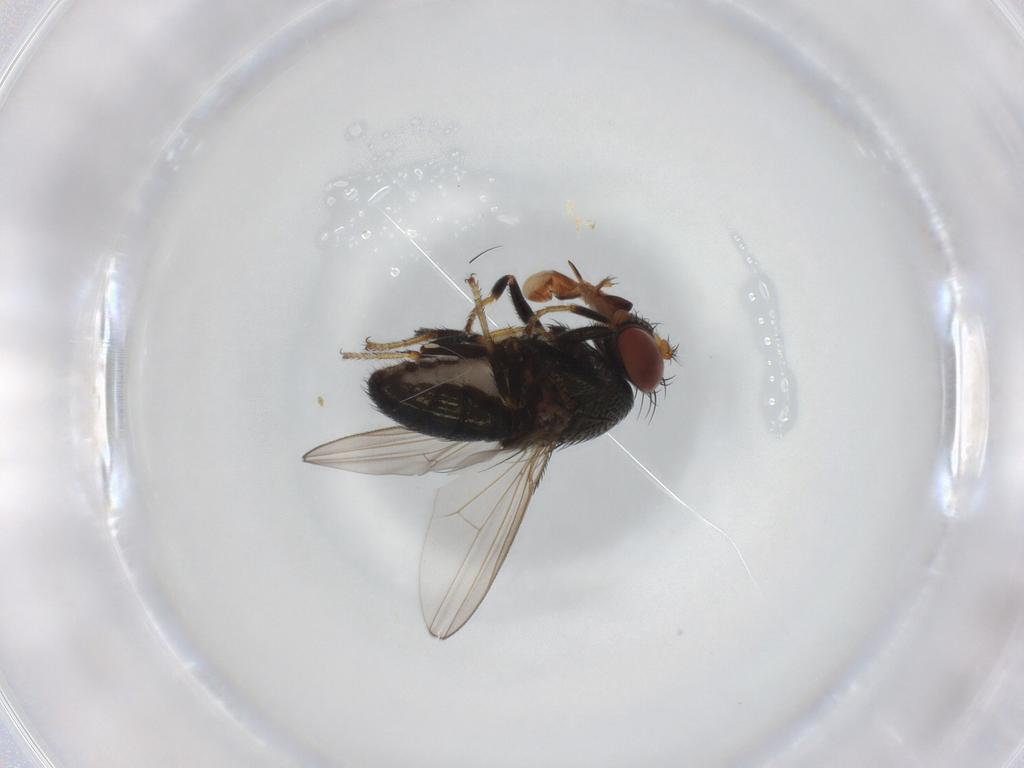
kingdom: Animalia
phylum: Arthropoda
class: Insecta
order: Diptera
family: Ephydridae
